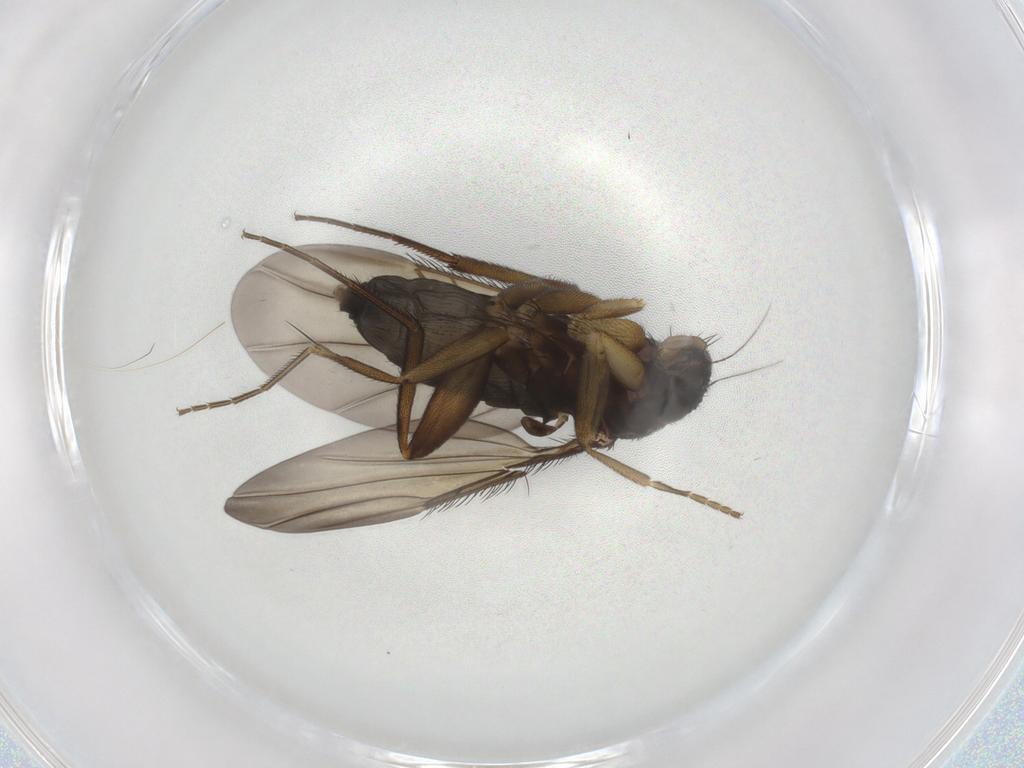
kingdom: Animalia
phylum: Arthropoda
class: Insecta
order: Diptera
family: Phoridae
